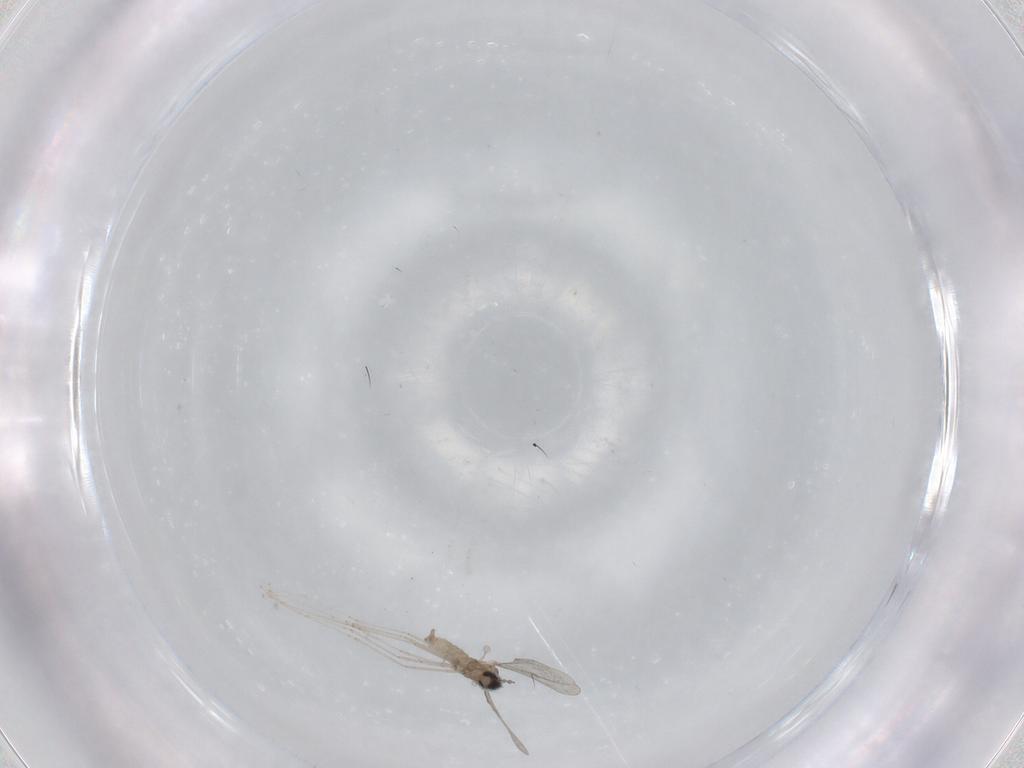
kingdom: Animalia
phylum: Arthropoda
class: Insecta
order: Diptera
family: Cecidomyiidae
